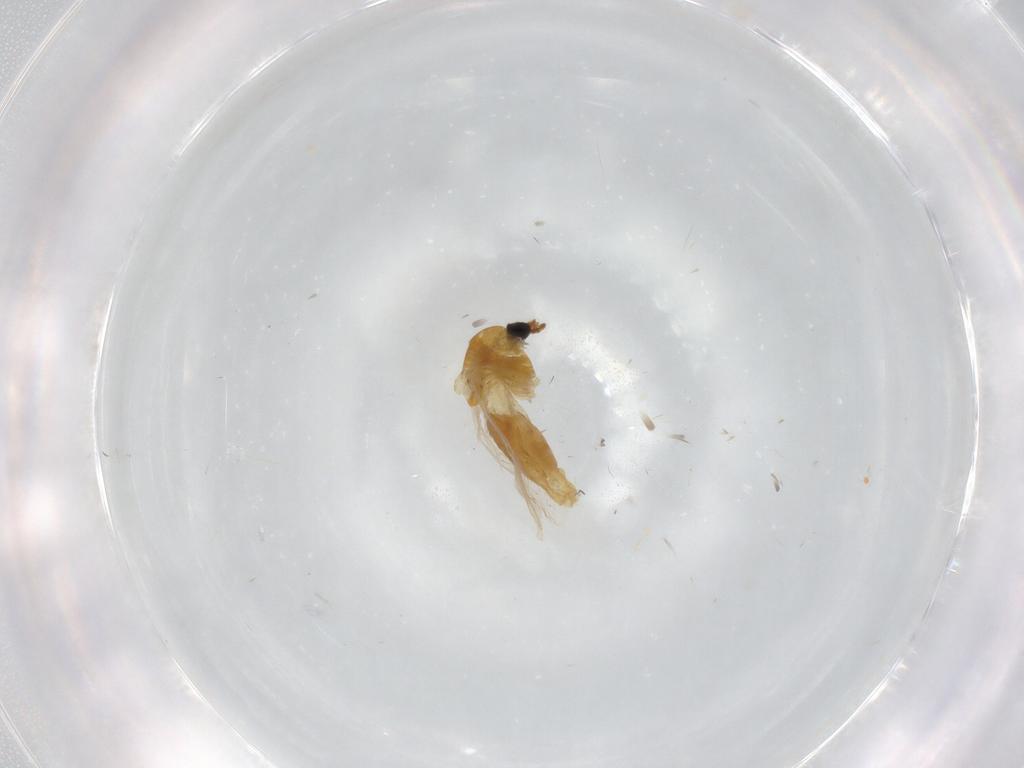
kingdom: Animalia
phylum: Arthropoda
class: Insecta
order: Diptera
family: Chironomidae
